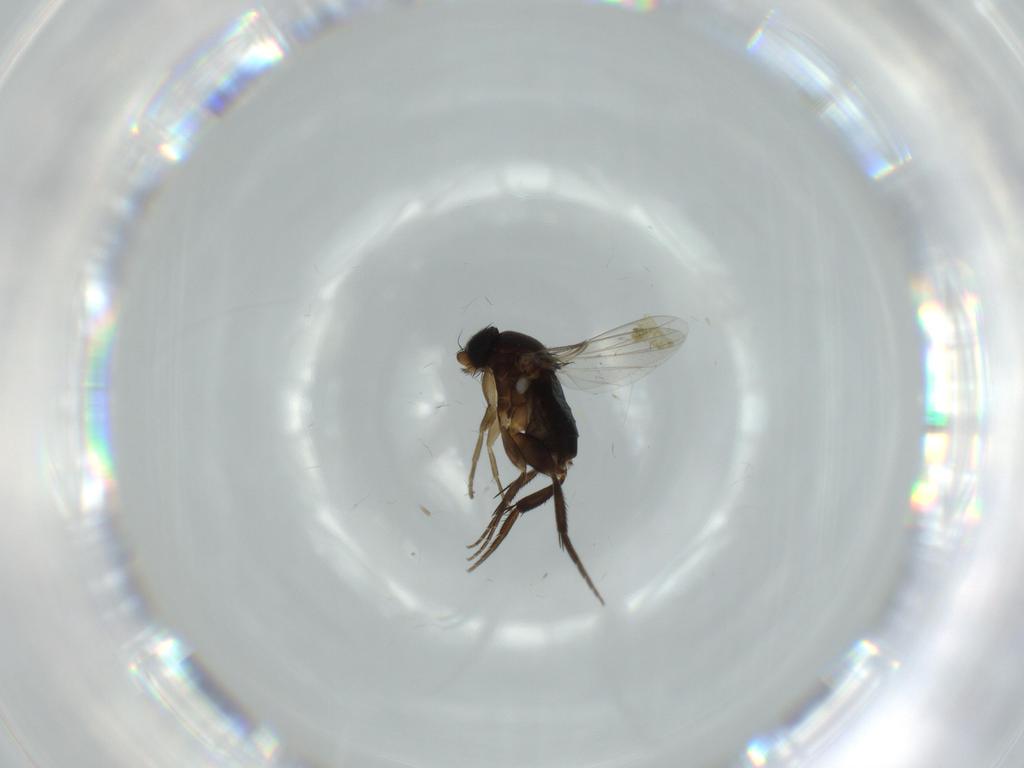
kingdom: Animalia
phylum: Arthropoda
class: Insecta
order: Diptera
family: Phoridae
